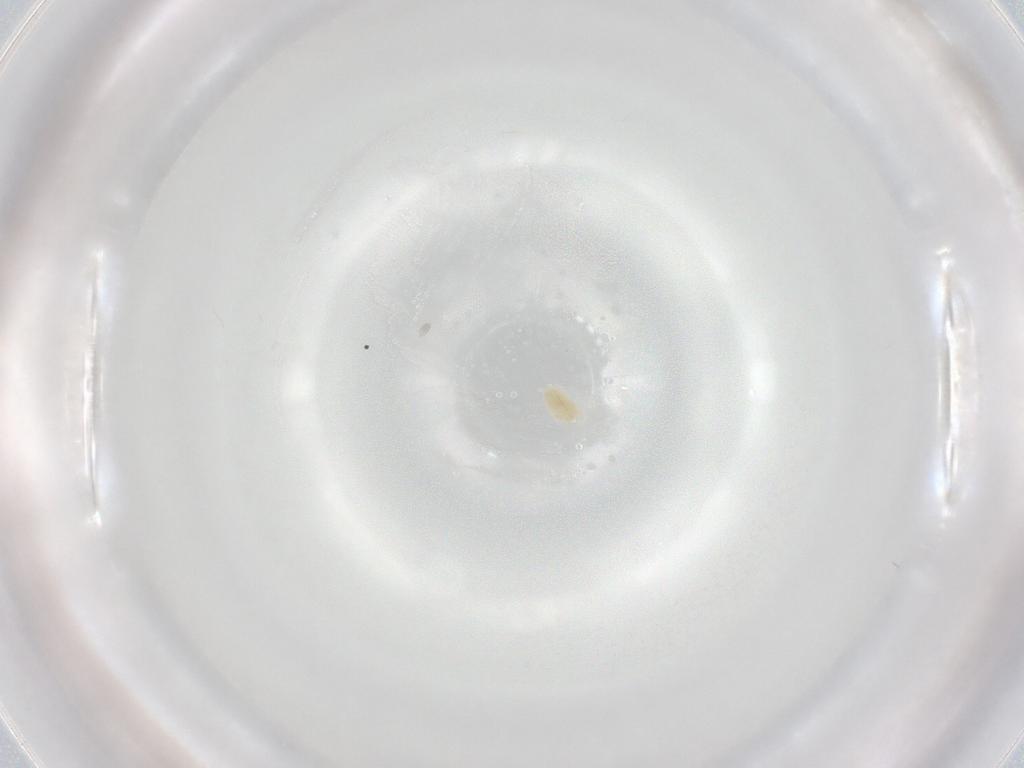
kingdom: Animalia
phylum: Arthropoda
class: Arachnida
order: Trombidiformes
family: Eupodidae
